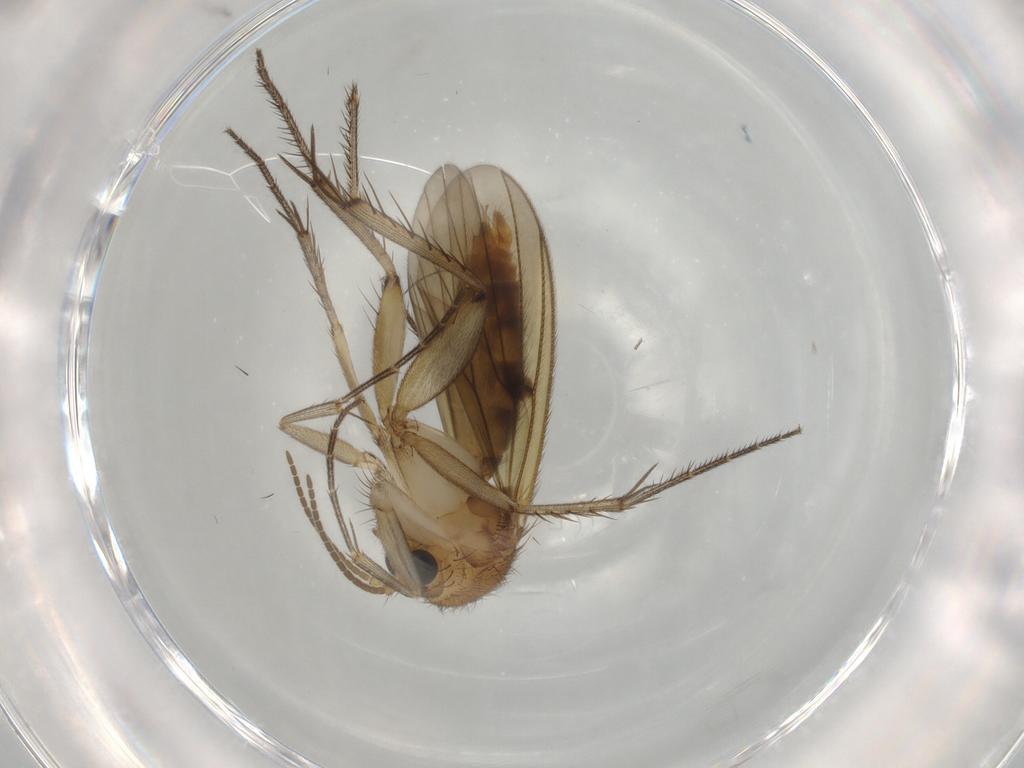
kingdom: Animalia
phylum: Arthropoda
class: Insecta
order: Diptera
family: Mycetophilidae
